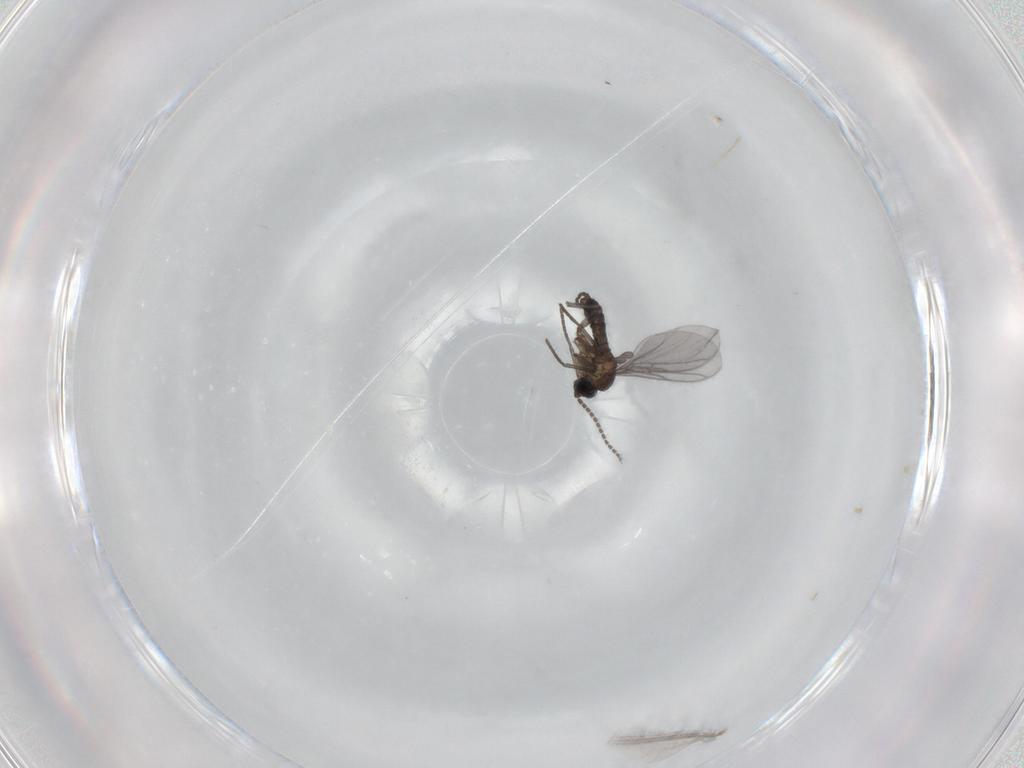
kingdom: Animalia
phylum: Arthropoda
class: Insecta
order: Diptera
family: Chironomidae
